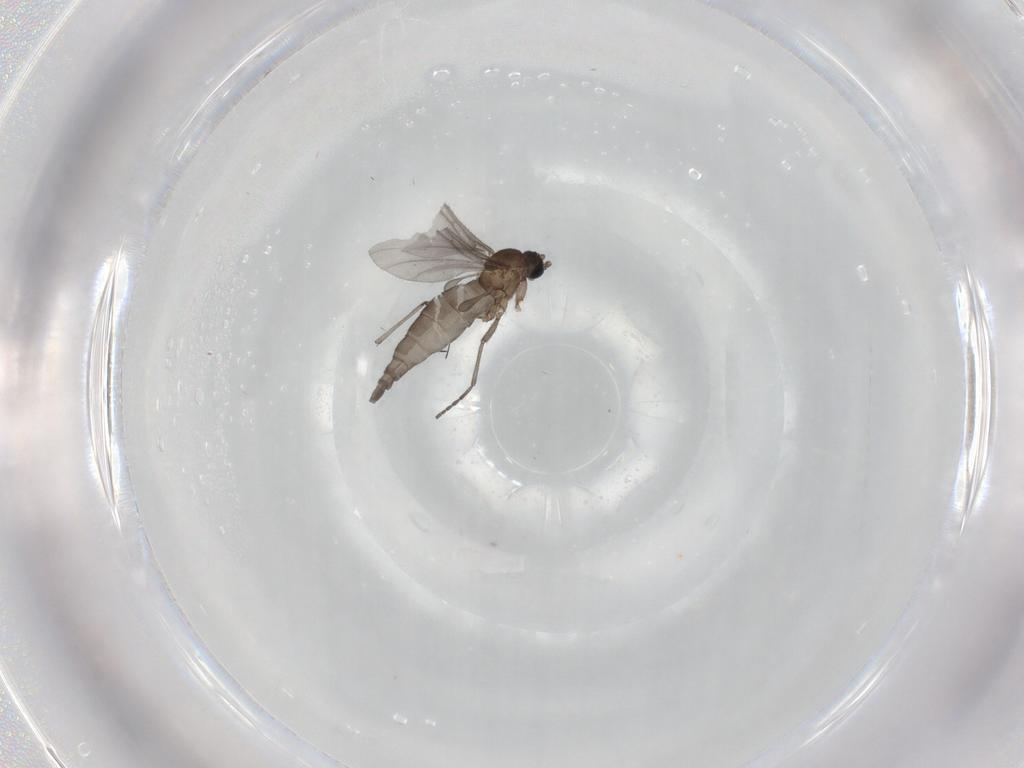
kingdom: Animalia
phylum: Arthropoda
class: Insecta
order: Diptera
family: Sciaridae
